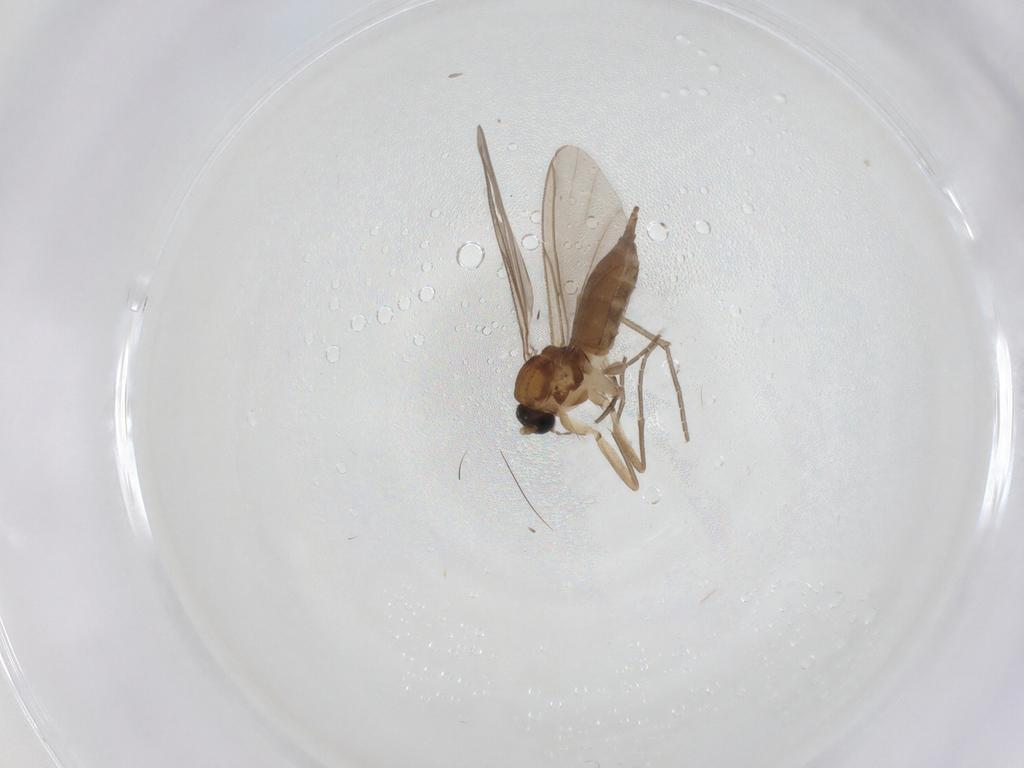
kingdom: Animalia
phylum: Arthropoda
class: Insecta
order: Diptera
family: Sciaridae
